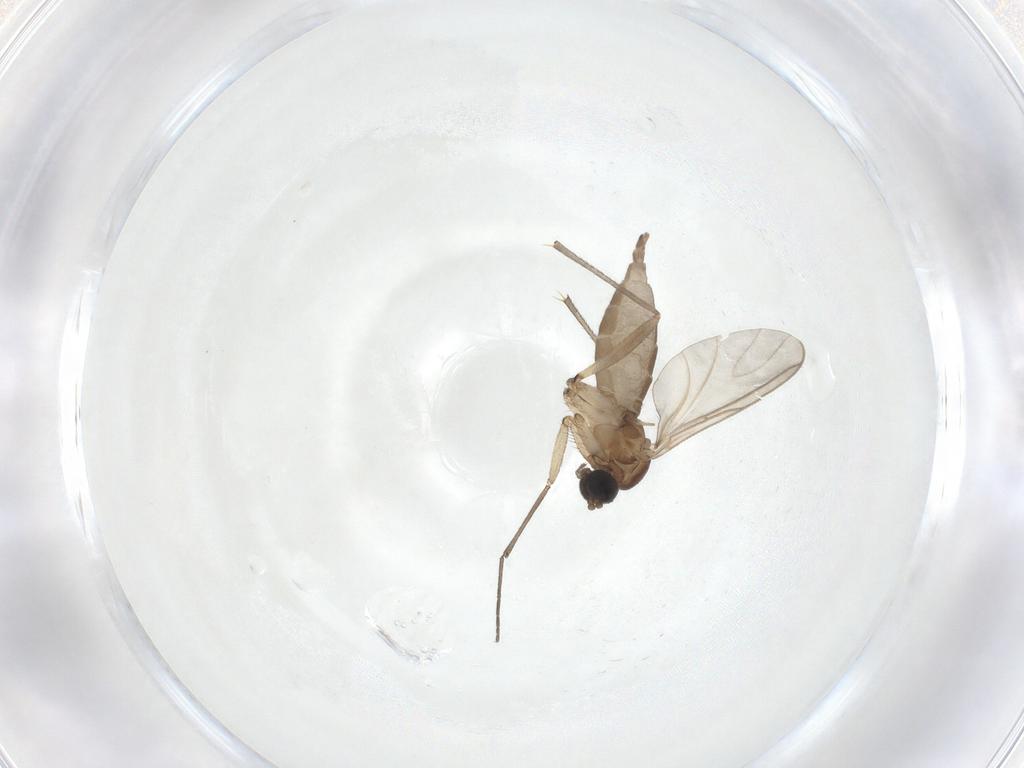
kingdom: Animalia
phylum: Arthropoda
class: Insecta
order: Diptera
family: Sciaridae
